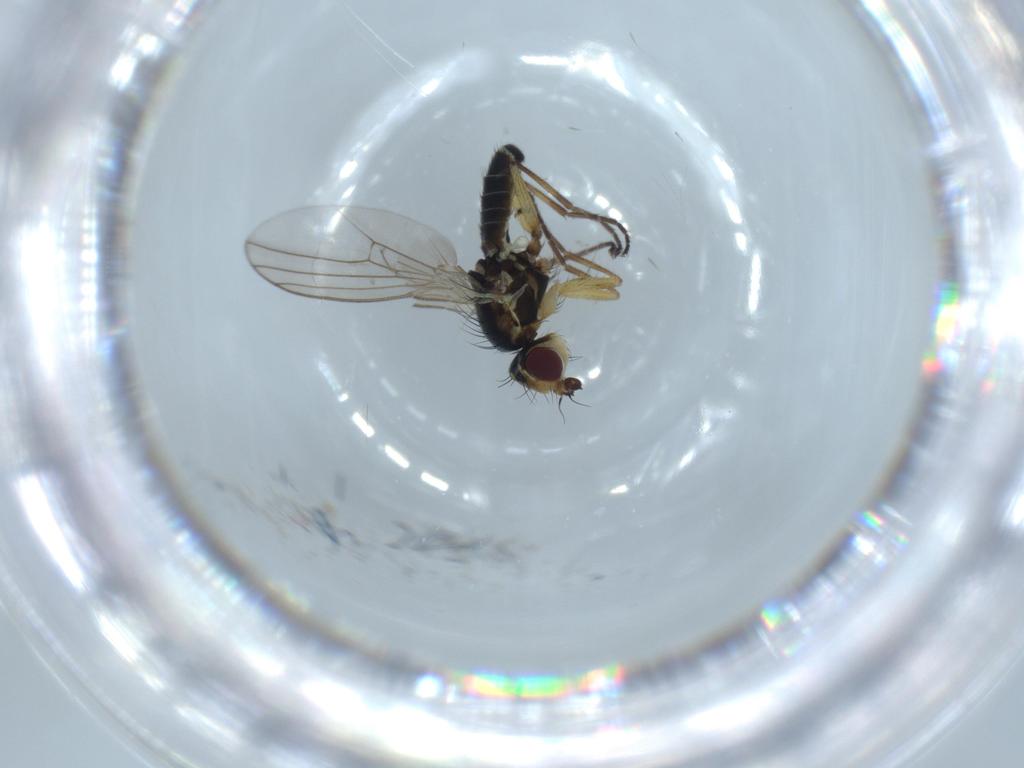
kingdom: Animalia
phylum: Arthropoda
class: Insecta
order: Diptera
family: Agromyzidae
